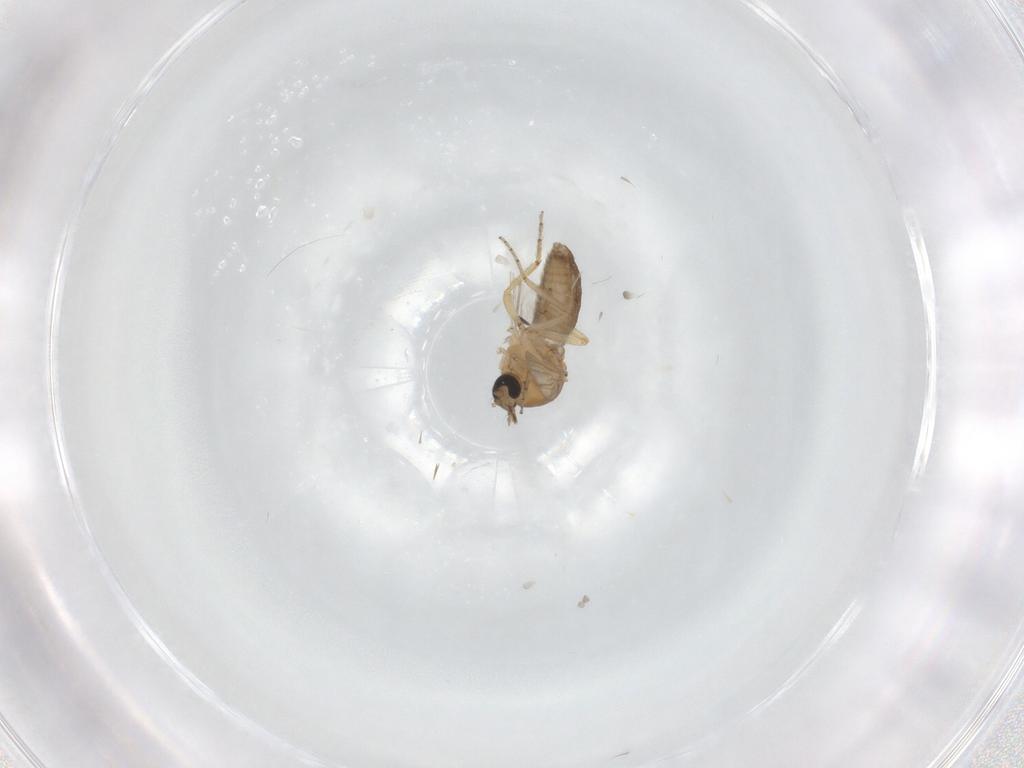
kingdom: Animalia
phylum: Arthropoda
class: Insecta
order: Diptera
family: Ceratopogonidae
